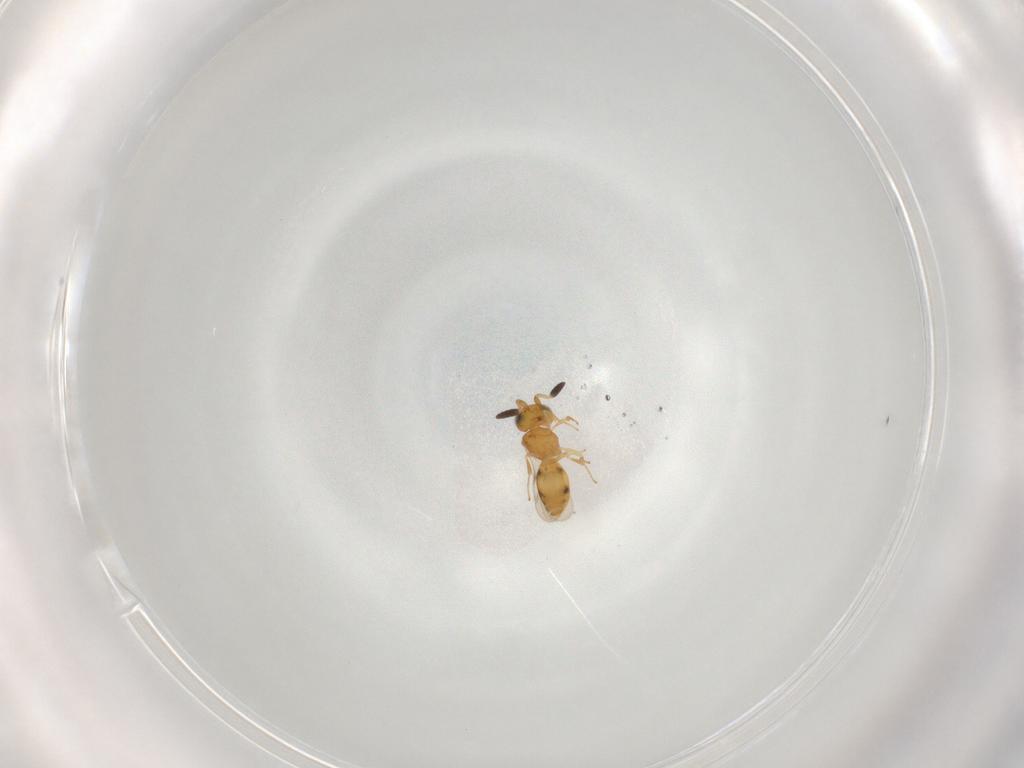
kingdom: Animalia
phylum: Arthropoda
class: Insecta
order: Hymenoptera
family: Scelionidae
